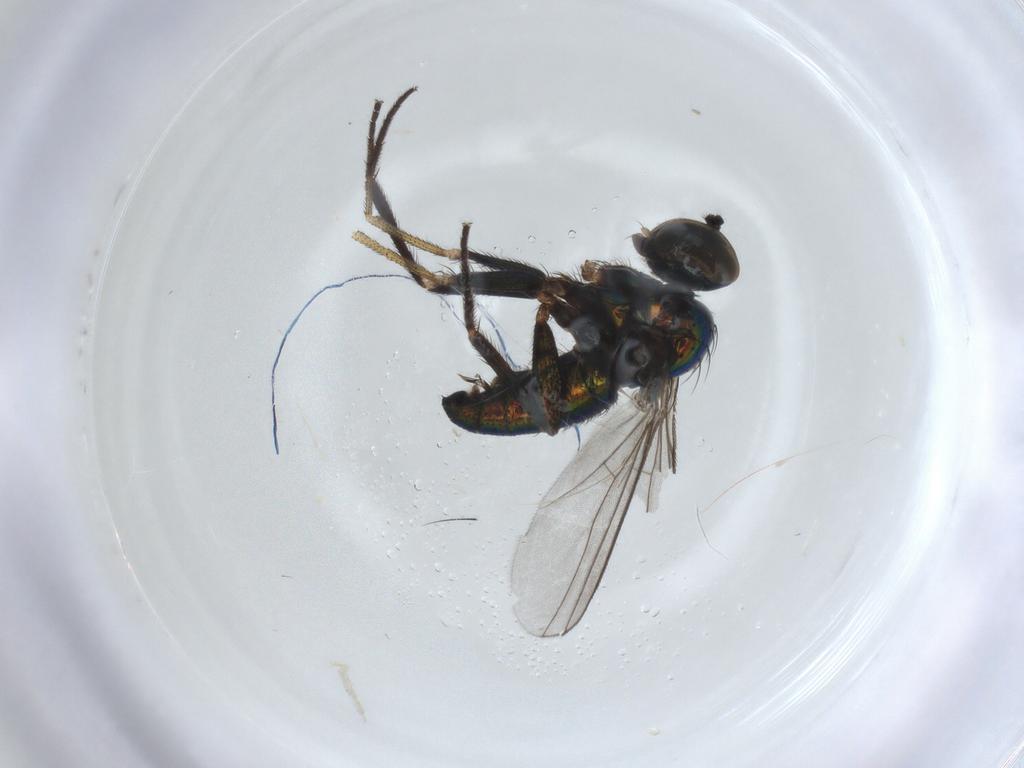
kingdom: Animalia
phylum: Arthropoda
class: Insecta
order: Diptera
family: Dolichopodidae
